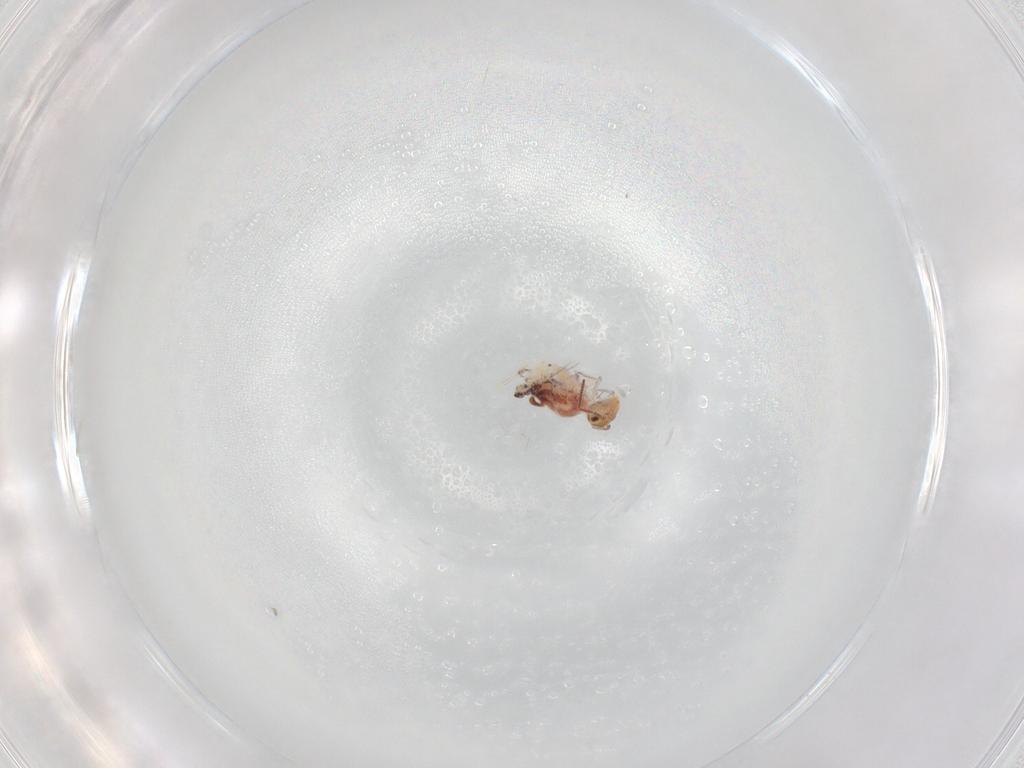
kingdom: Animalia
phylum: Arthropoda
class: Collembola
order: Symphypleona
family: Bourletiellidae
